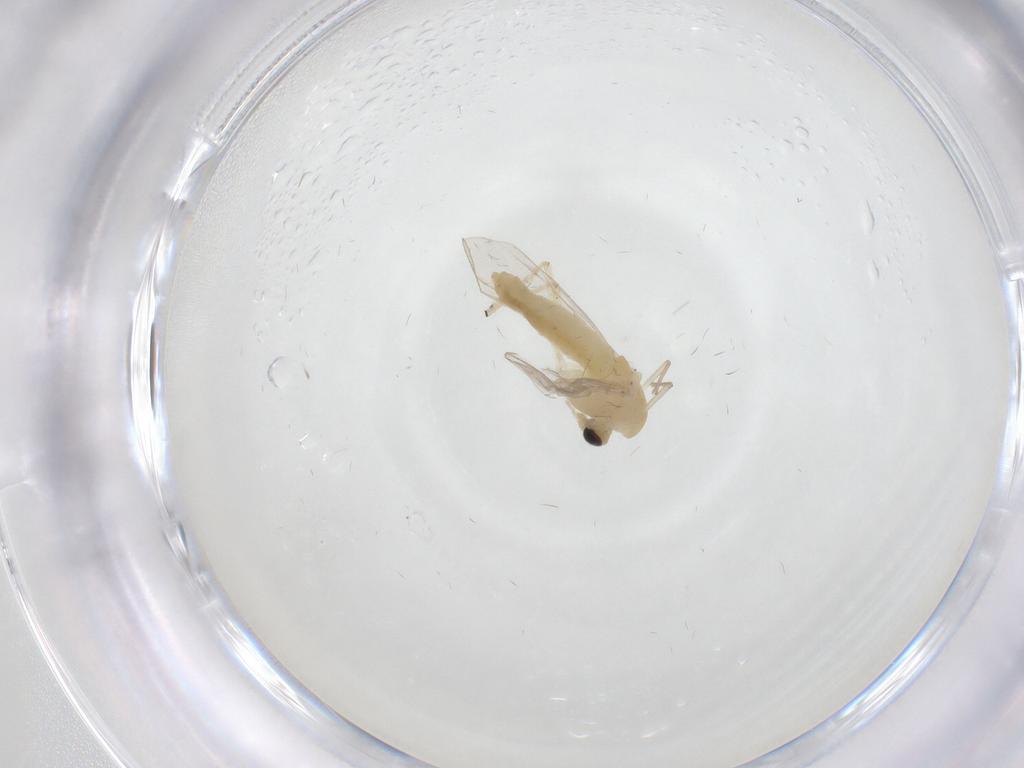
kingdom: Animalia
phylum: Arthropoda
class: Insecta
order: Diptera
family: Chironomidae
